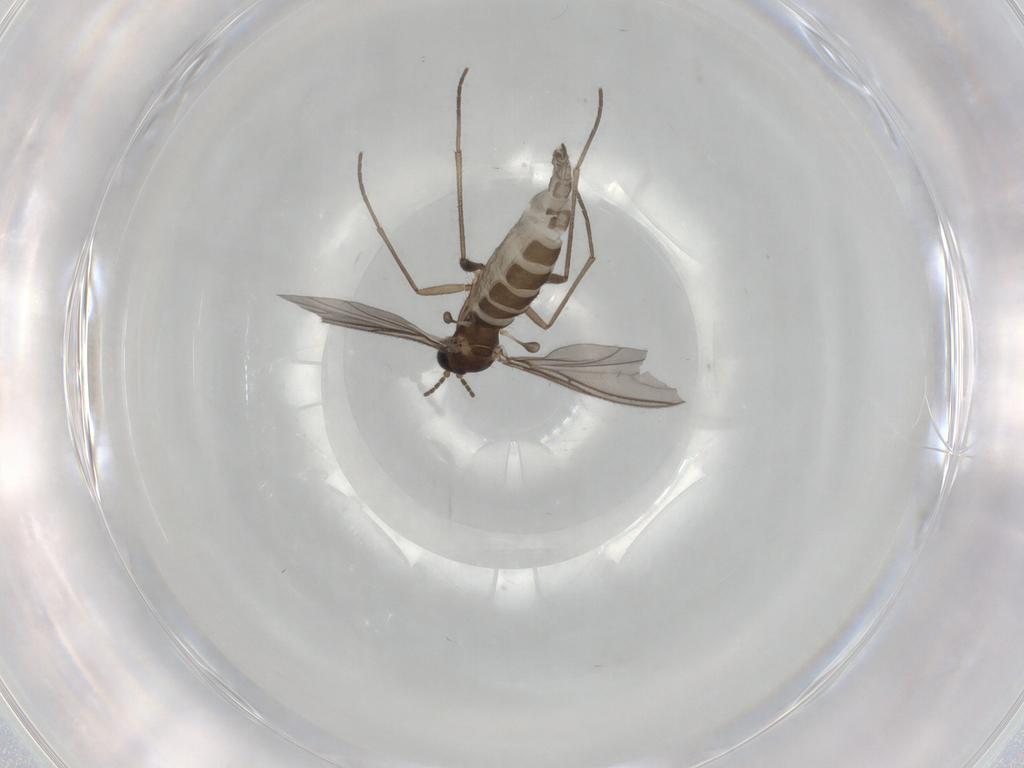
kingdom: Animalia
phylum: Arthropoda
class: Insecta
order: Diptera
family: Sciaridae
